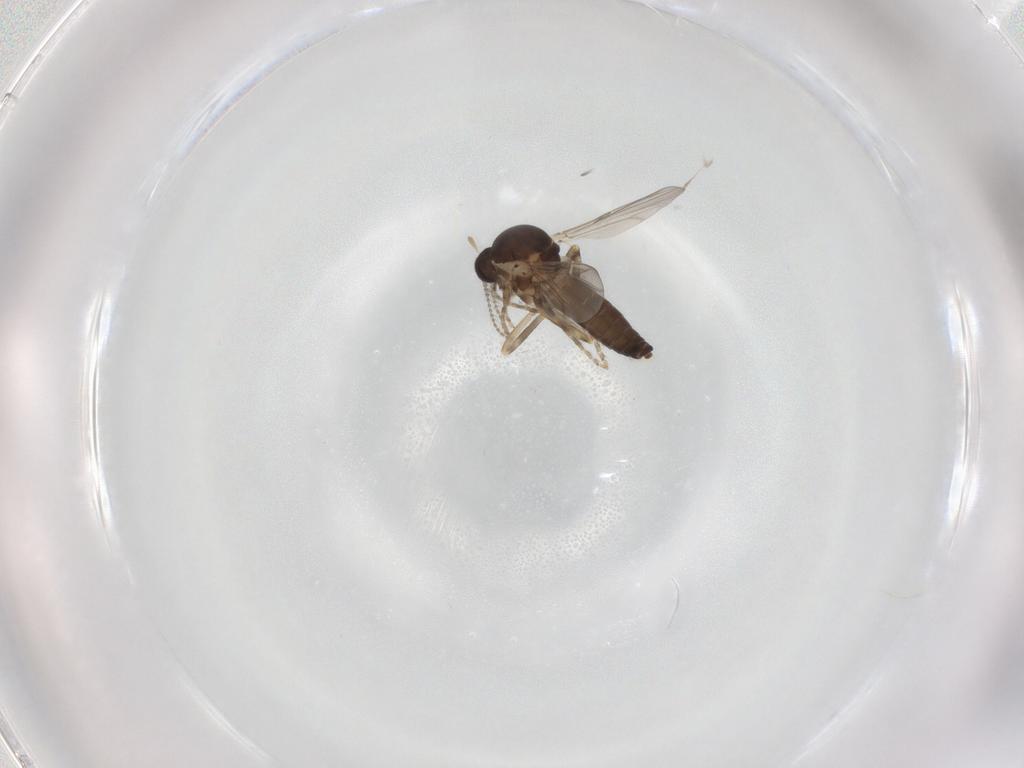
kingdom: Animalia
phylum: Arthropoda
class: Insecta
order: Diptera
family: Ceratopogonidae
